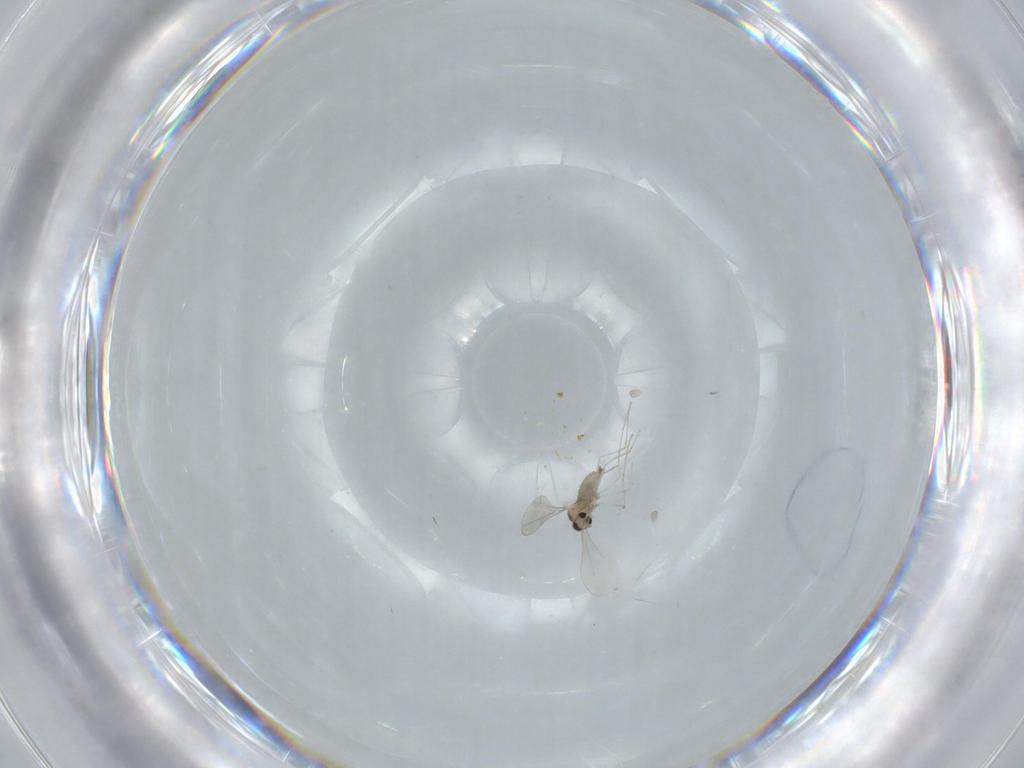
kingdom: Animalia
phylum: Arthropoda
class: Insecta
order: Diptera
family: Cecidomyiidae
